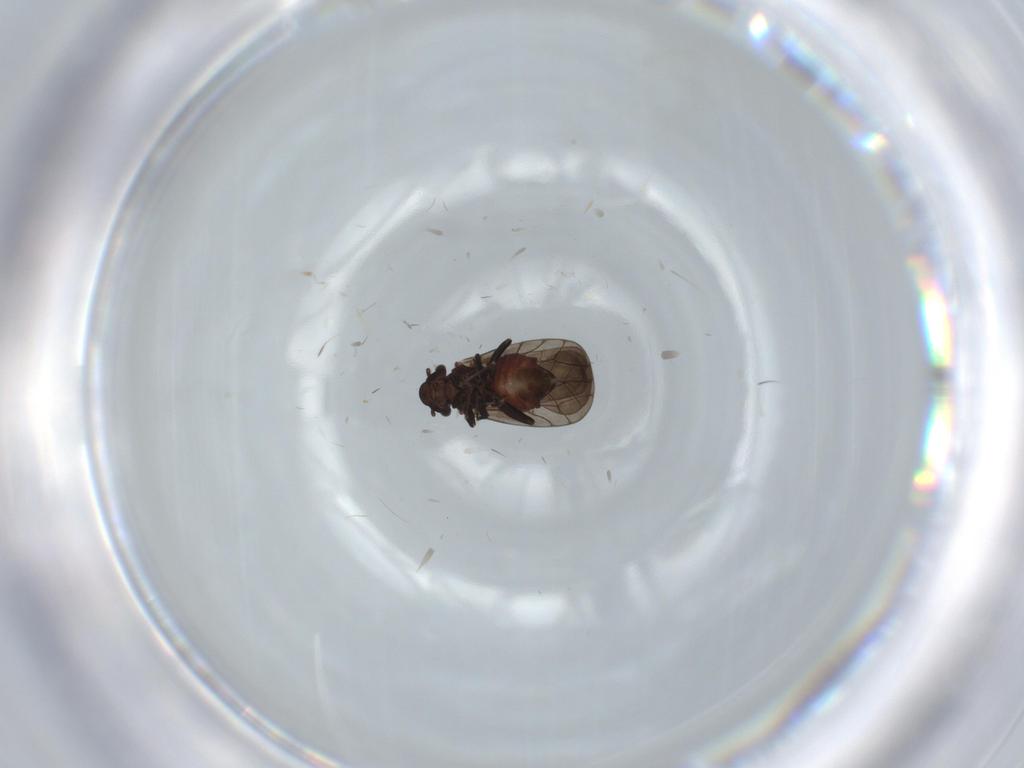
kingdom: Animalia
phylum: Arthropoda
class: Insecta
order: Psocodea
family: Lepidopsocidae
